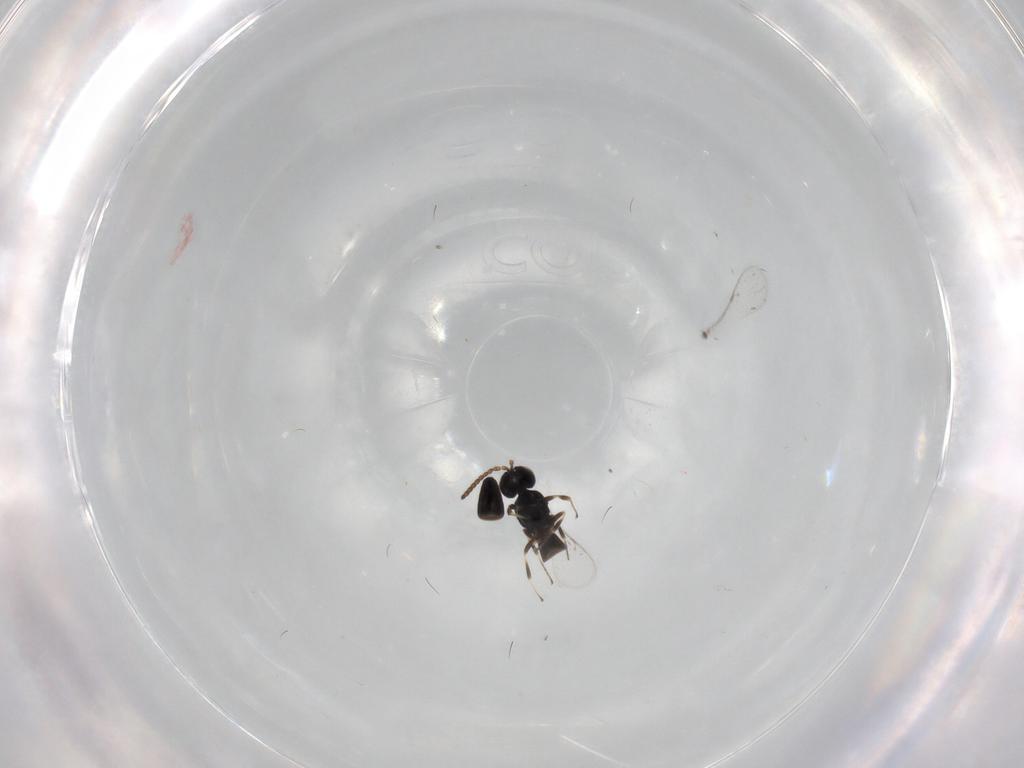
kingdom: Animalia
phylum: Arthropoda
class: Insecta
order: Hymenoptera
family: Scelionidae
